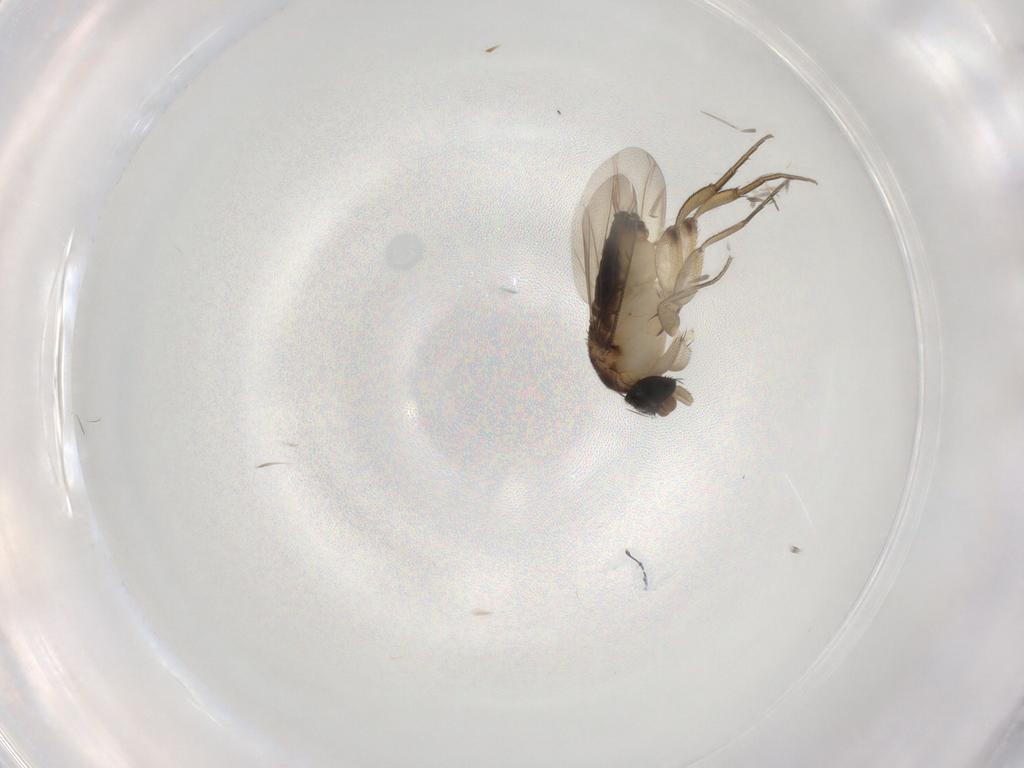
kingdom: Animalia
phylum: Arthropoda
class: Insecta
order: Diptera
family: Phoridae
